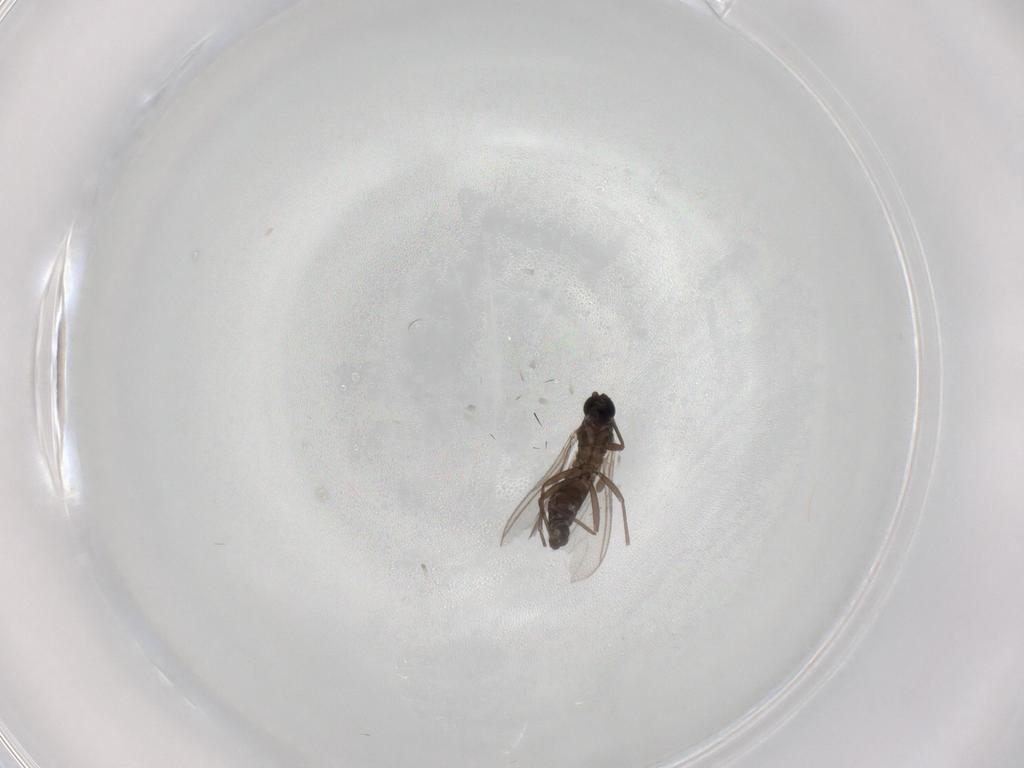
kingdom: Animalia
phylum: Arthropoda
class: Insecta
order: Diptera
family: Chironomidae
